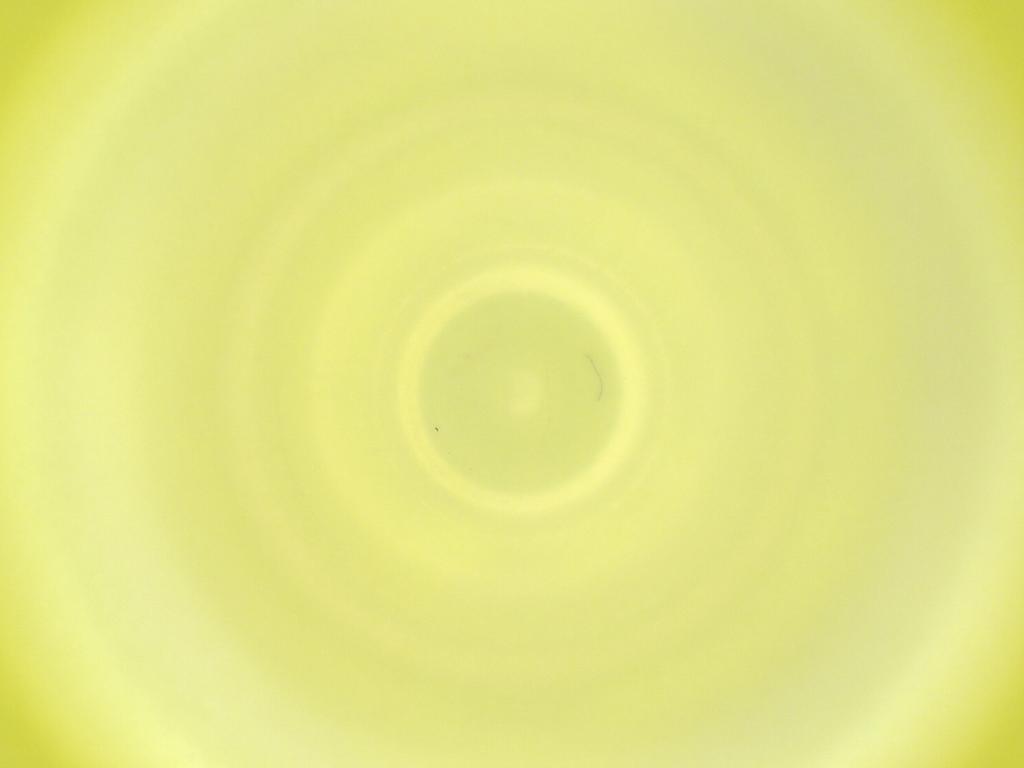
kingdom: Animalia
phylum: Arthropoda
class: Insecta
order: Diptera
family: Cecidomyiidae
